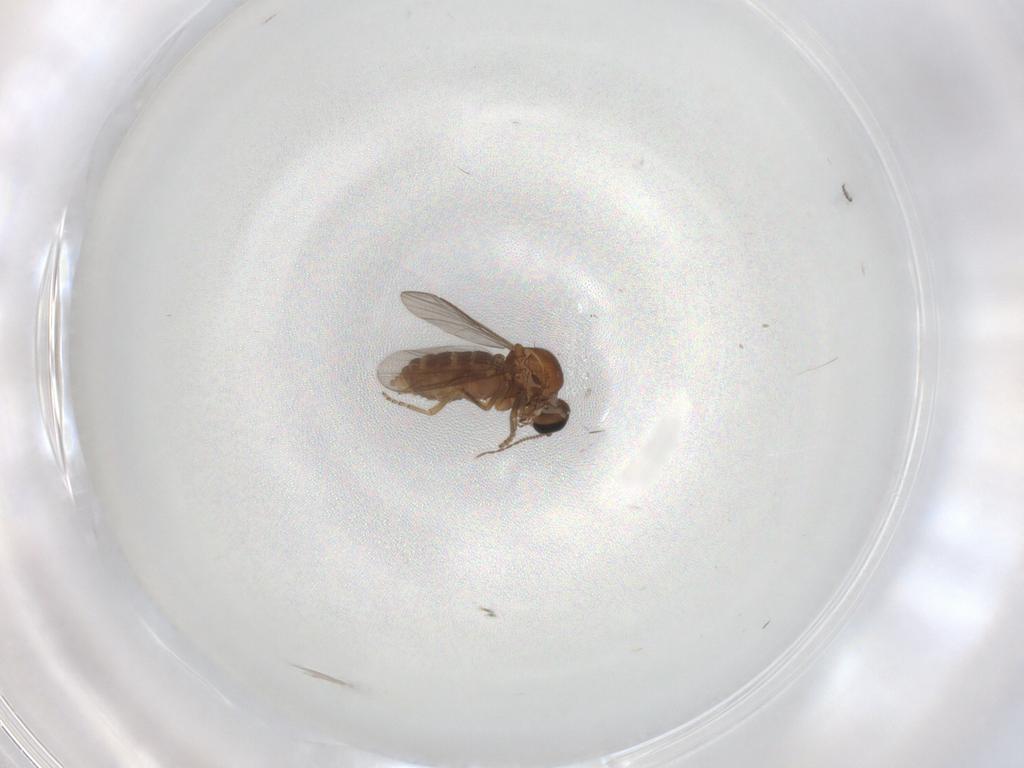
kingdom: Animalia
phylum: Arthropoda
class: Insecta
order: Diptera
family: Ceratopogonidae
